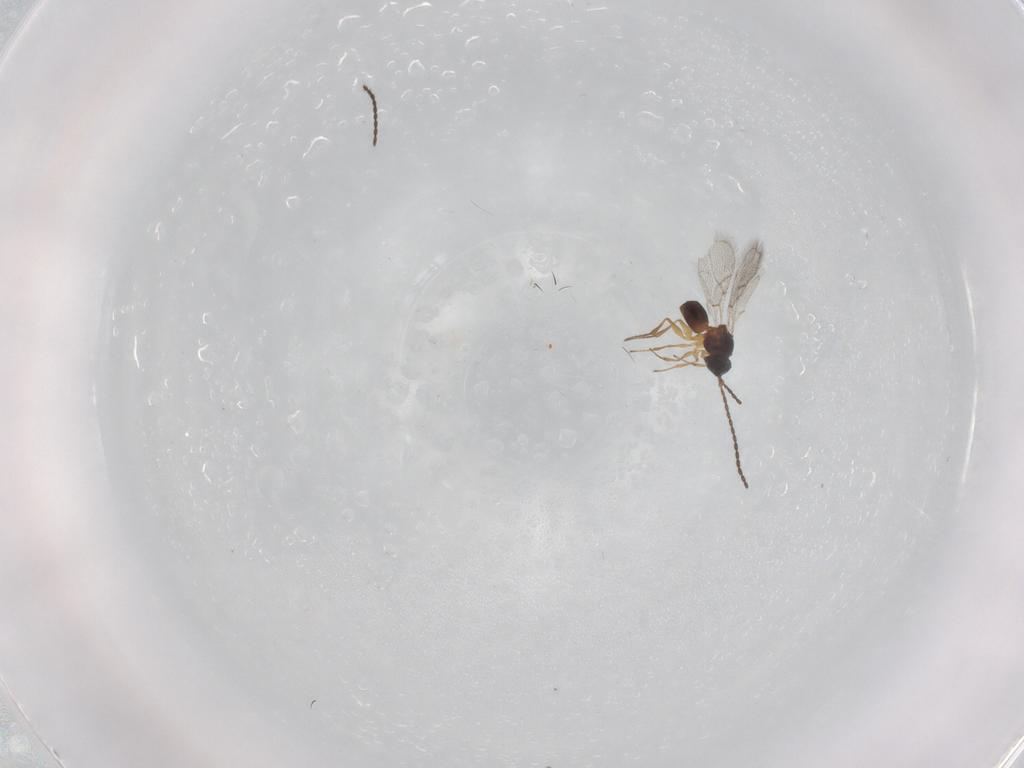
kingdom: Animalia
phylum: Arthropoda
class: Insecta
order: Hymenoptera
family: Figitidae
